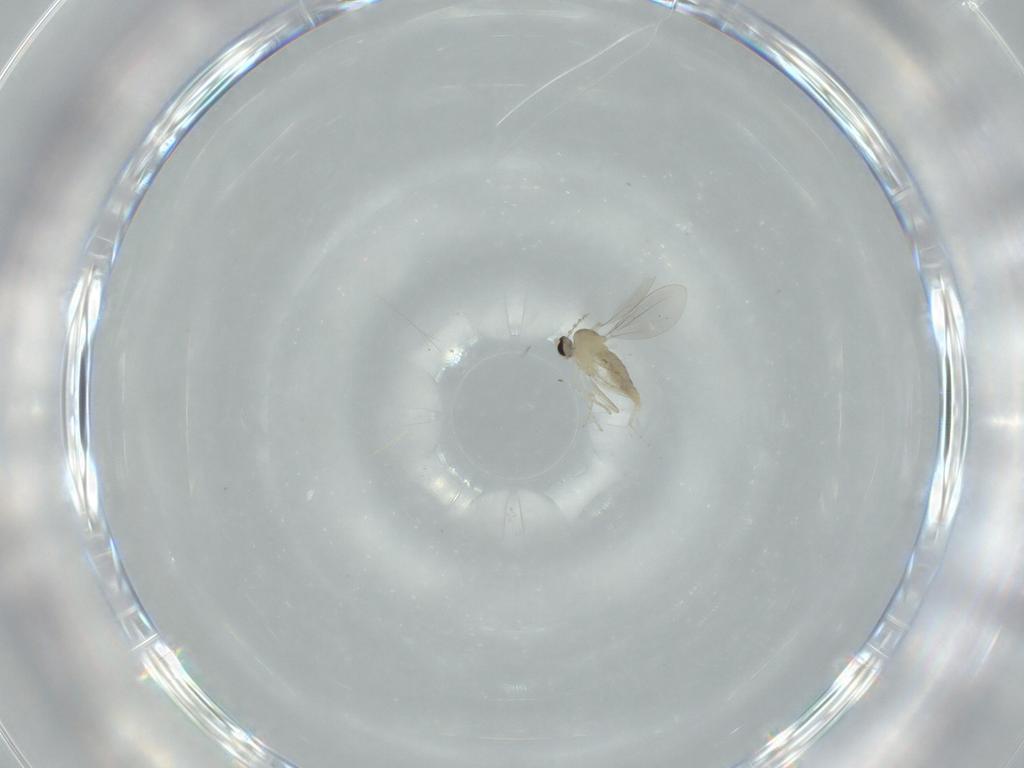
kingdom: Animalia
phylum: Arthropoda
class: Insecta
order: Diptera
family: Cecidomyiidae
